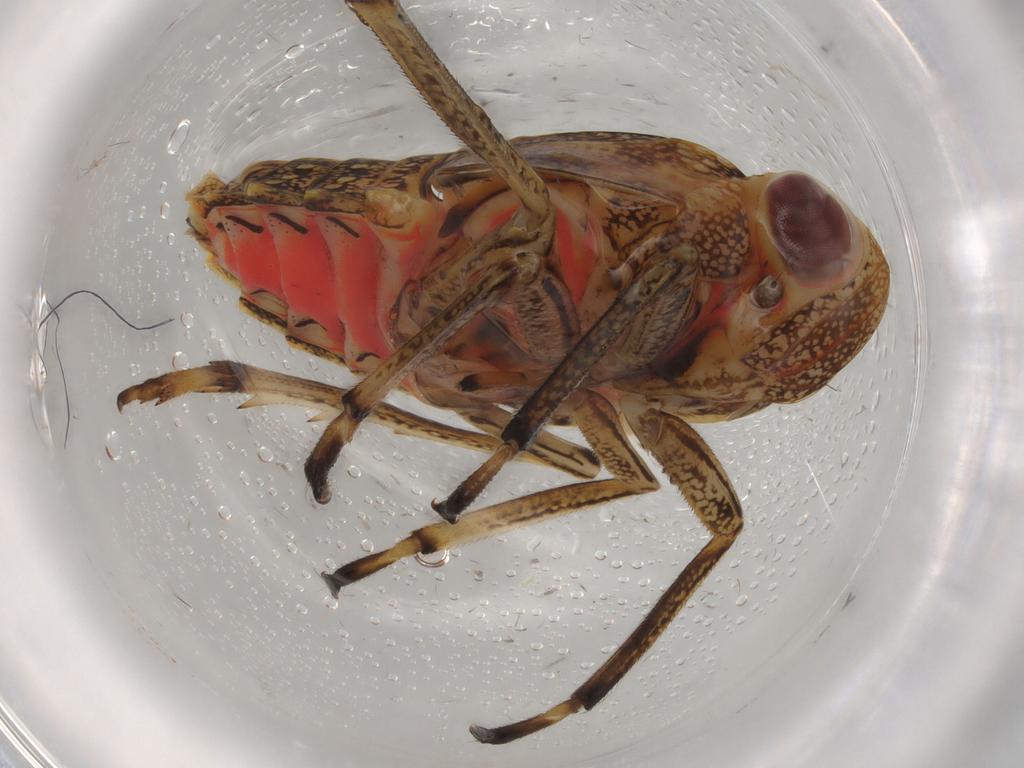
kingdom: Animalia
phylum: Arthropoda
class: Insecta
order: Hemiptera
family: Issidae
